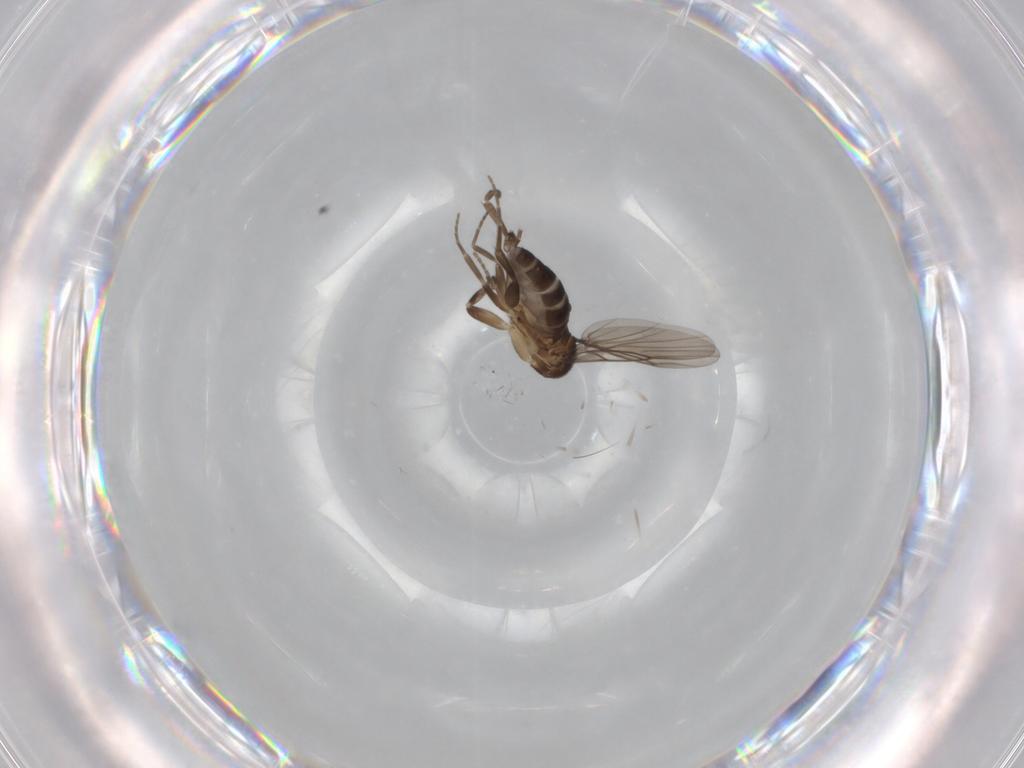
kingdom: Animalia
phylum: Arthropoda
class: Insecta
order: Diptera
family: Phoridae
